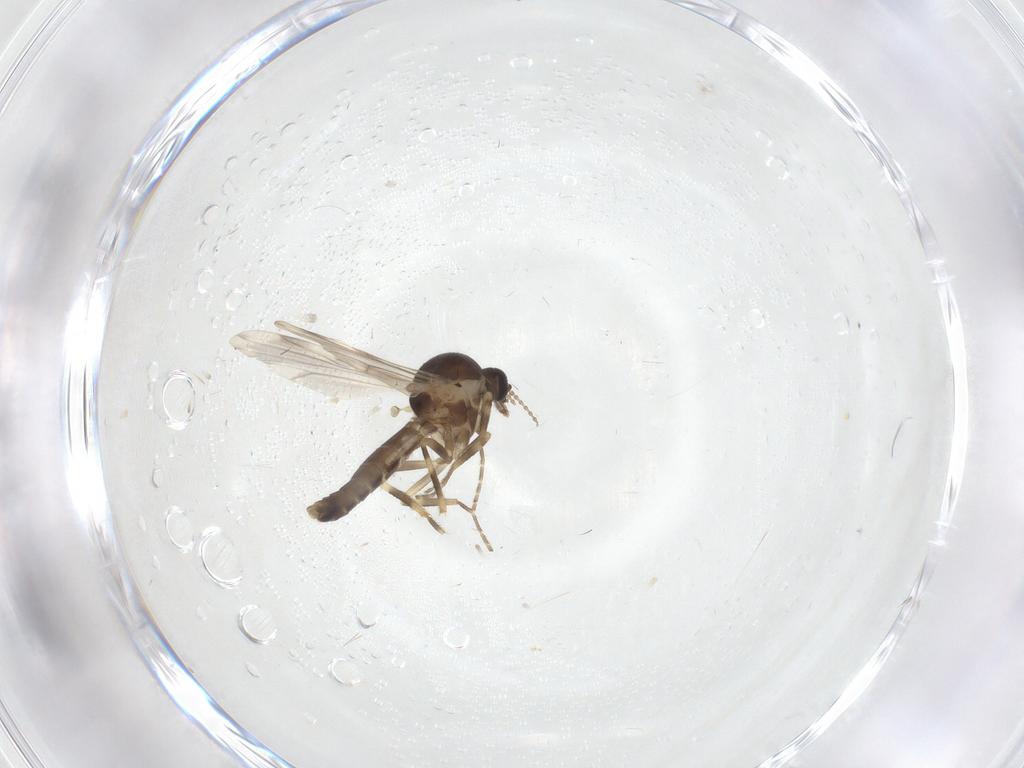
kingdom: Animalia
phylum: Arthropoda
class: Insecta
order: Diptera
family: Ceratopogonidae
